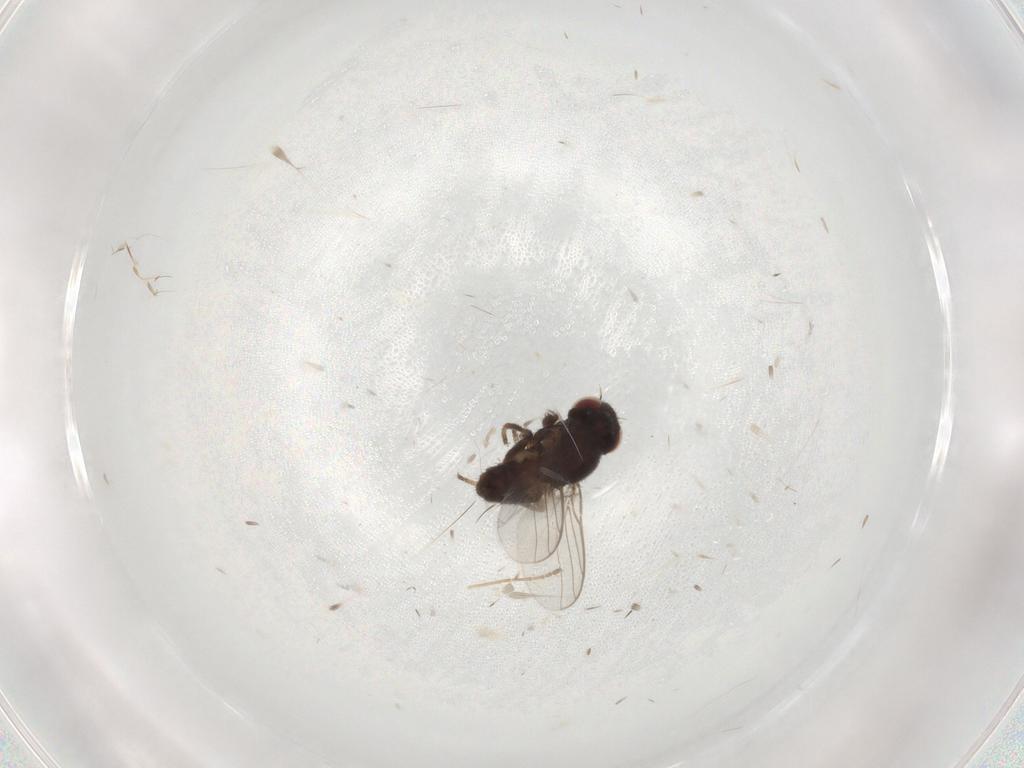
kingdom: Animalia
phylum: Arthropoda
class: Insecta
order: Diptera
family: Chloropidae
